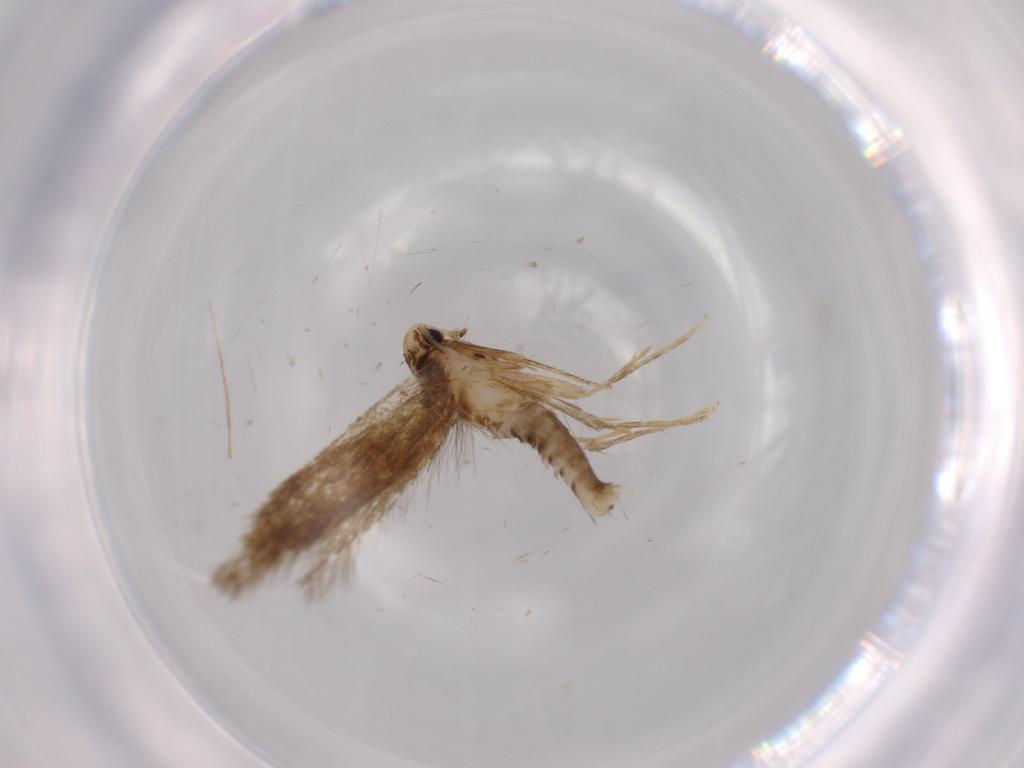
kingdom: Animalia
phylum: Arthropoda
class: Insecta
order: Lepidoptera
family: Tineidae
